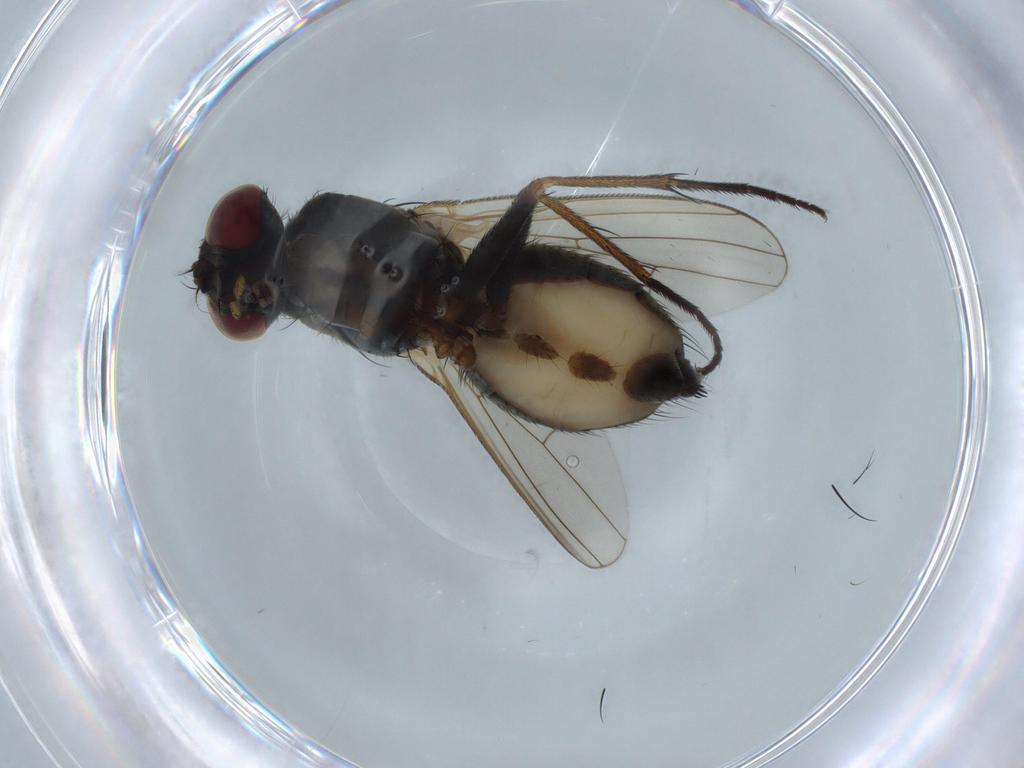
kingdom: Animalia
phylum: Arthropoda
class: Insecta
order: Diptera
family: Muscidae
